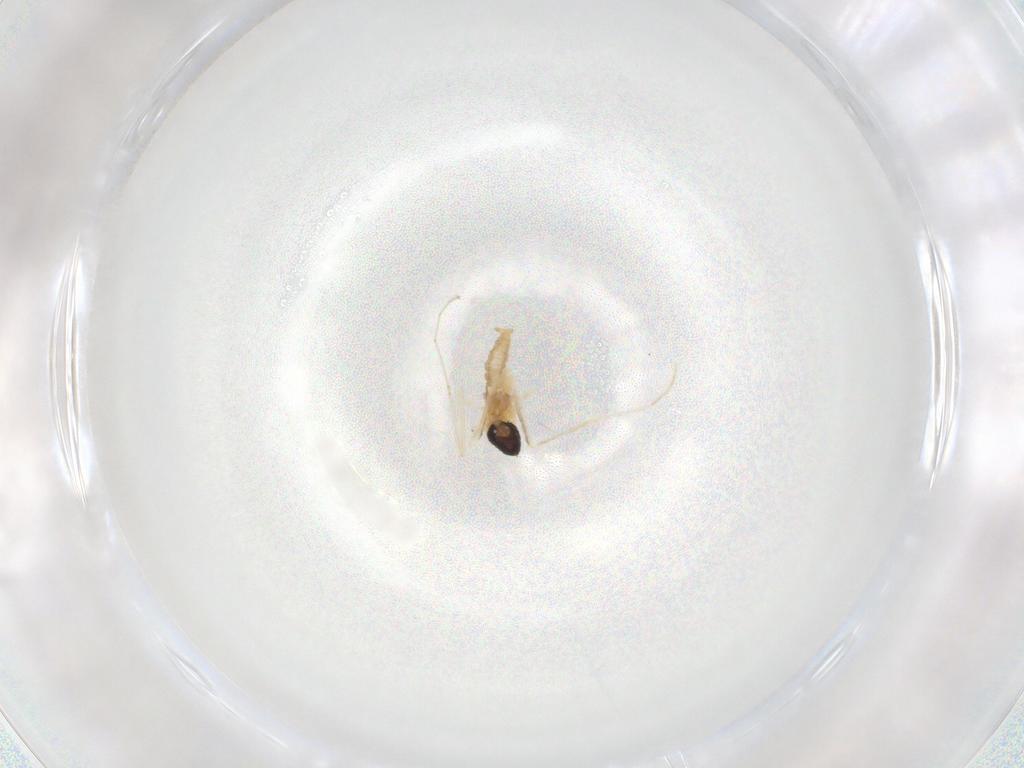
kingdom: Animalia
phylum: Arthropoda
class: Insecta
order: Diptera
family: Cecidomyiidae
